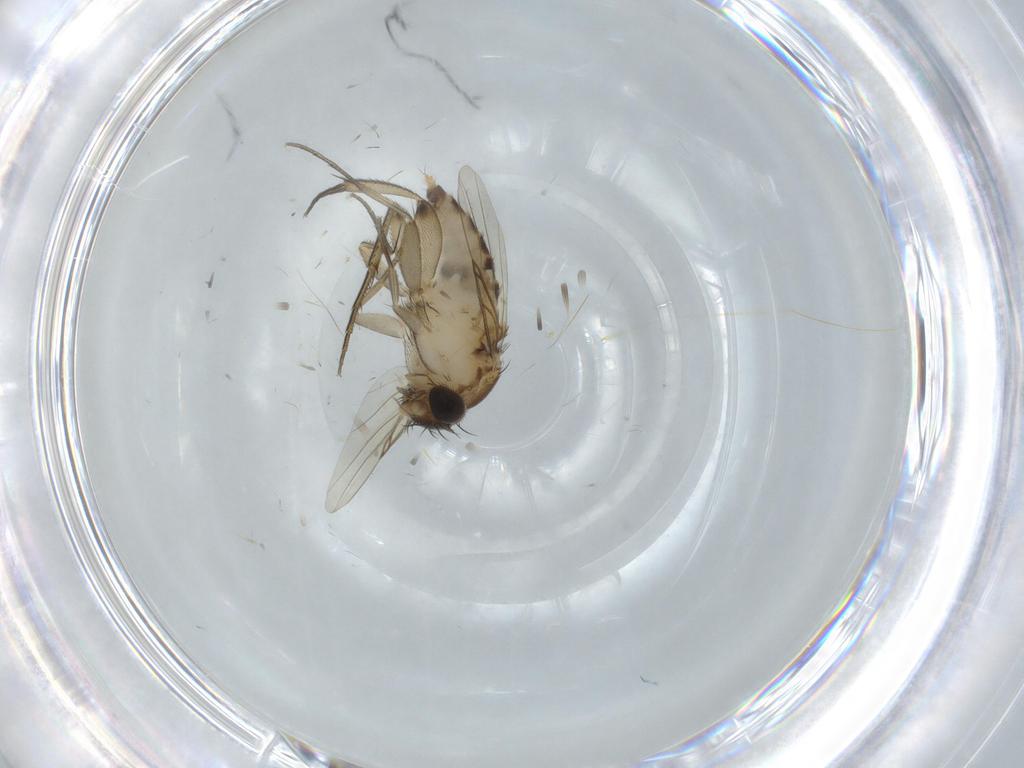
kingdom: Animalia
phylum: Arthropoda
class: Insecta
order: Diptera
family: Phoridae
